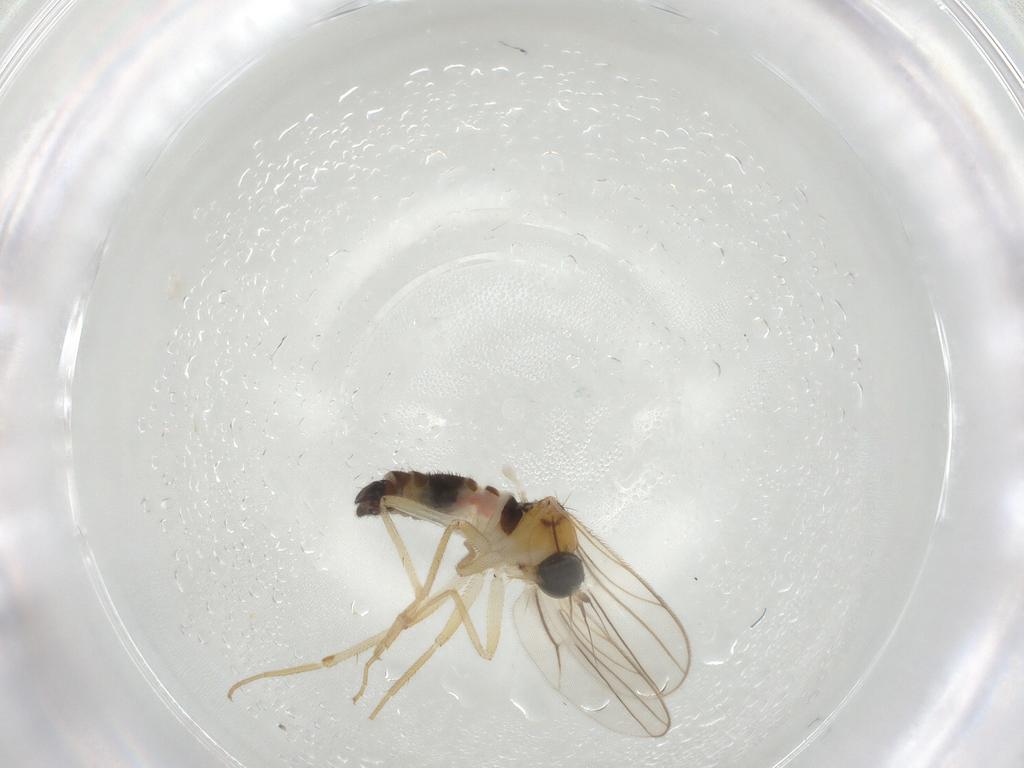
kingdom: Animalia
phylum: Arthropoda
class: Insecta
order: Diptera
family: Hybotidae
